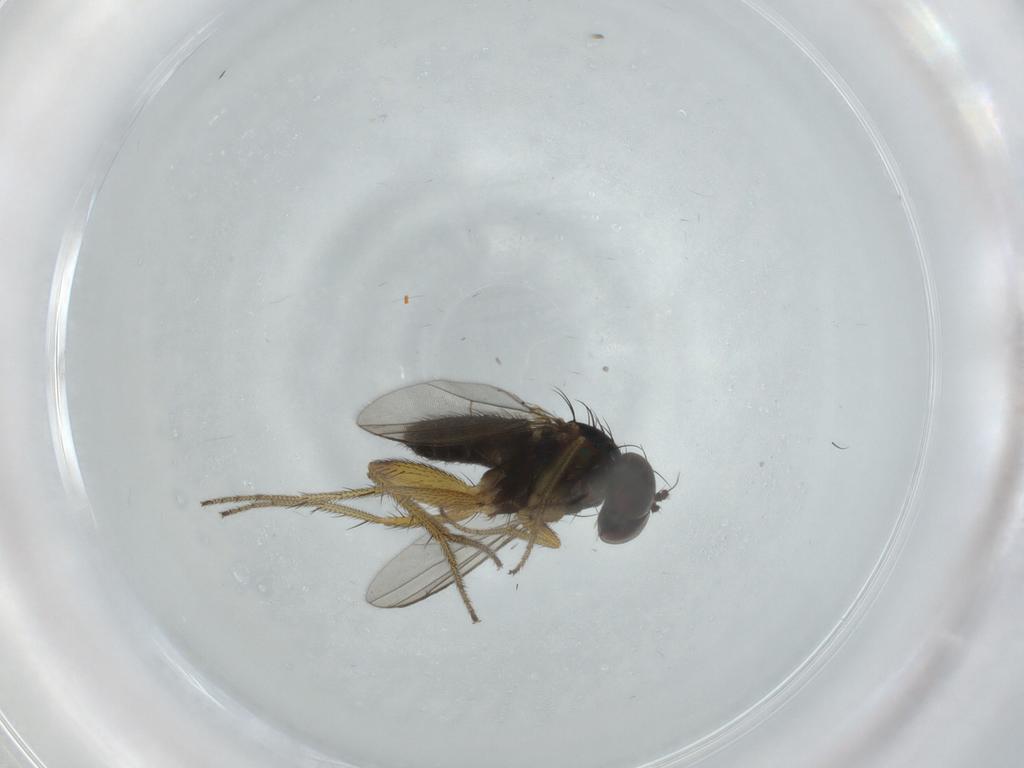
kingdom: Animalia
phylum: Arthropoda
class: Insecta
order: Diptera
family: Dolichopodidae
